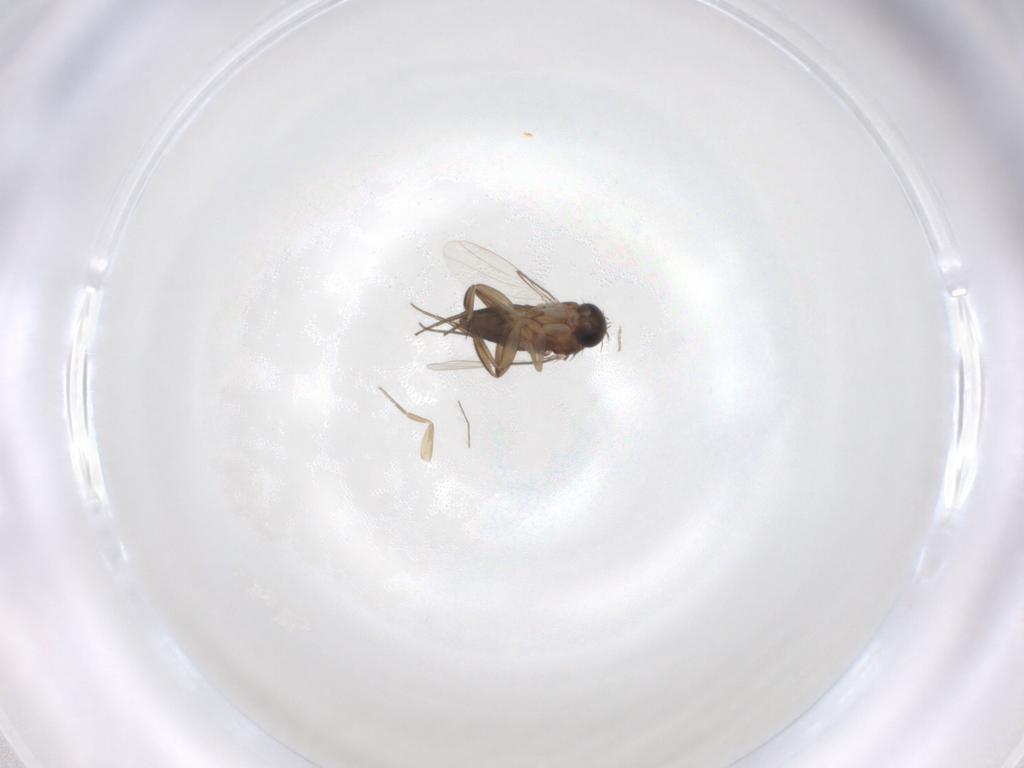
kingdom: Animalia
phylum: Arthropoda
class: Insecta
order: Diptera
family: Phoridae
